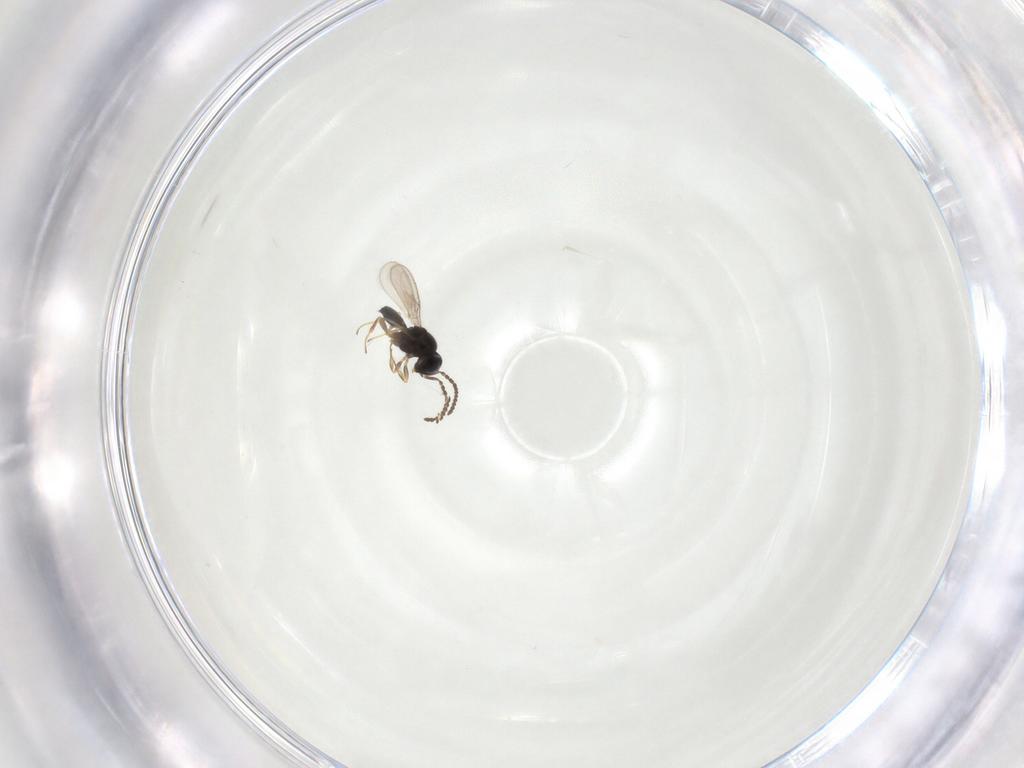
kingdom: Animalia
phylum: Arthropoda
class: Insecta
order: Hymenoptera
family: Scelionidae
